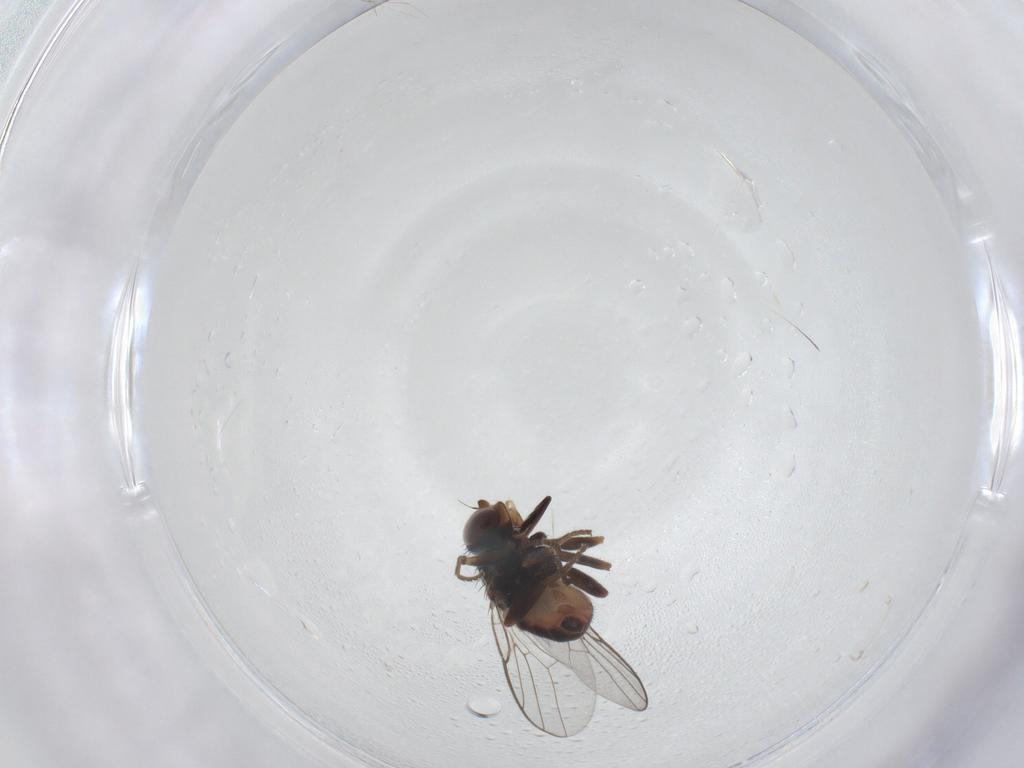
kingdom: Animalia
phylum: Arthropoda
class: Insecta
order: Diptera
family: Chloropidae
